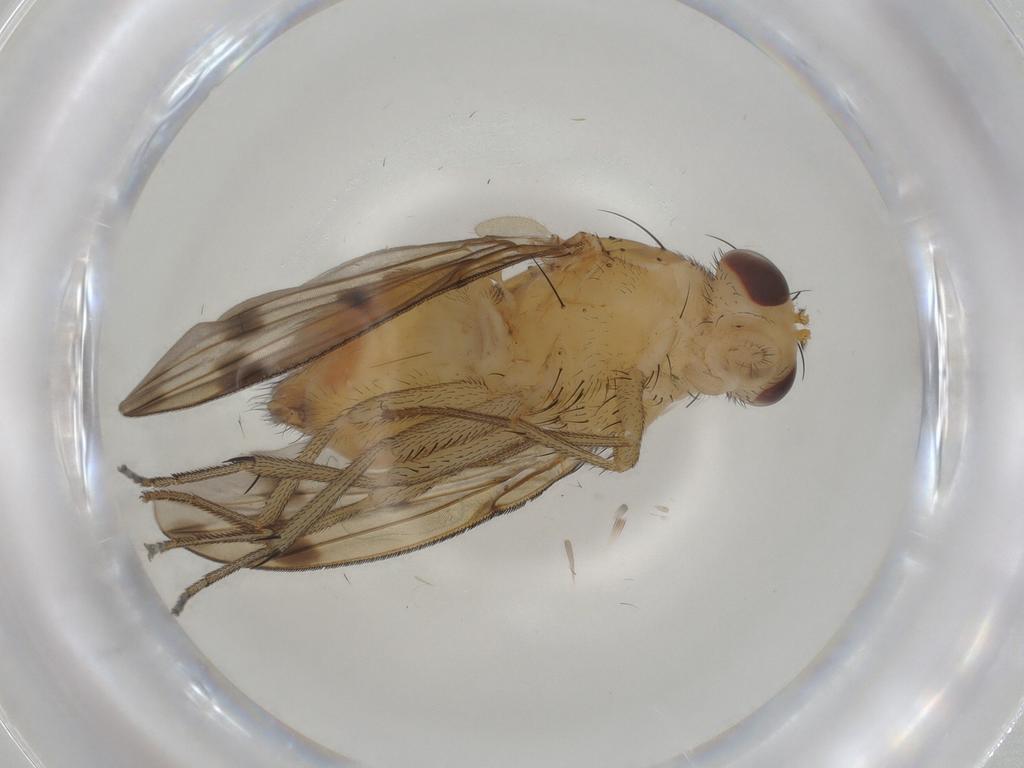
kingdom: Animalia
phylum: Arthropoda
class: Insecta
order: Diptera
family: Lauxaniidae
